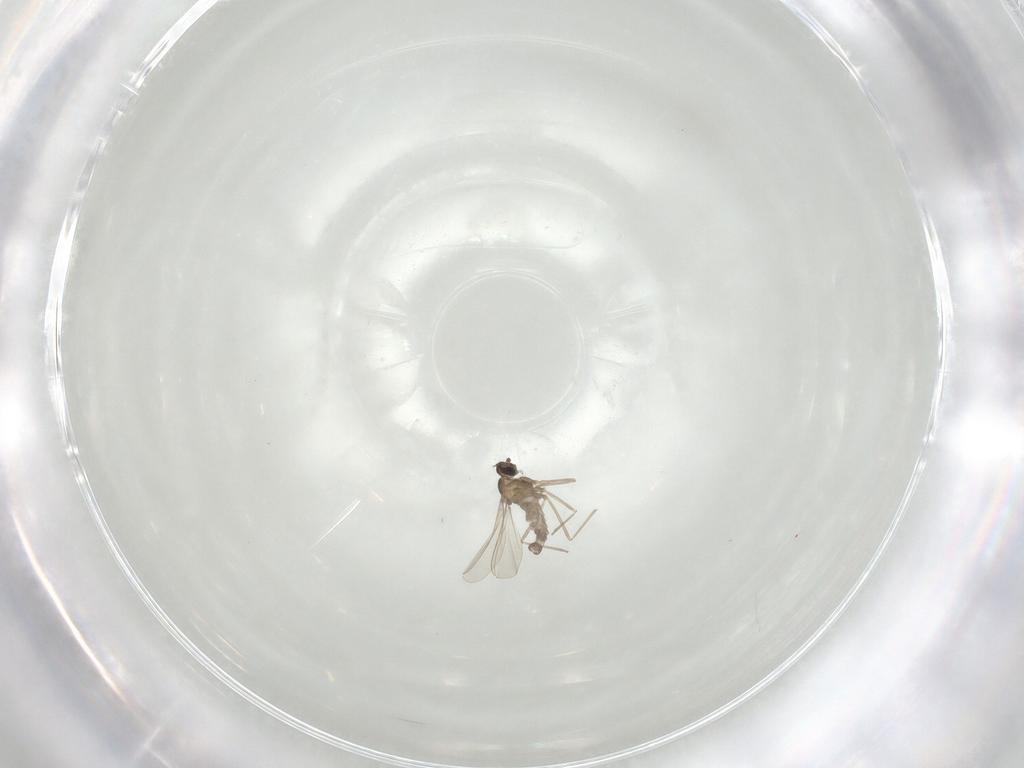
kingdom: Animalia
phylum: Arthropoda
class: Insecta
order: Diptera
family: Cecidomyiidae
